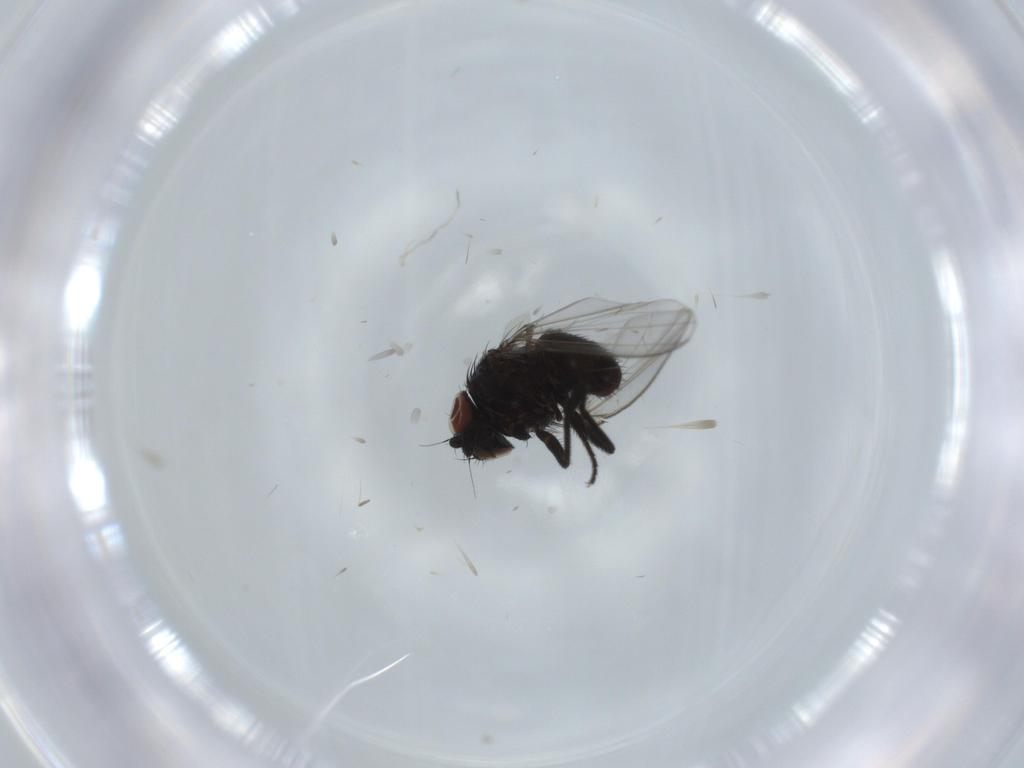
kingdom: Animalia
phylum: Arthropoda
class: Insecta
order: Diptera
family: Milichiidae
